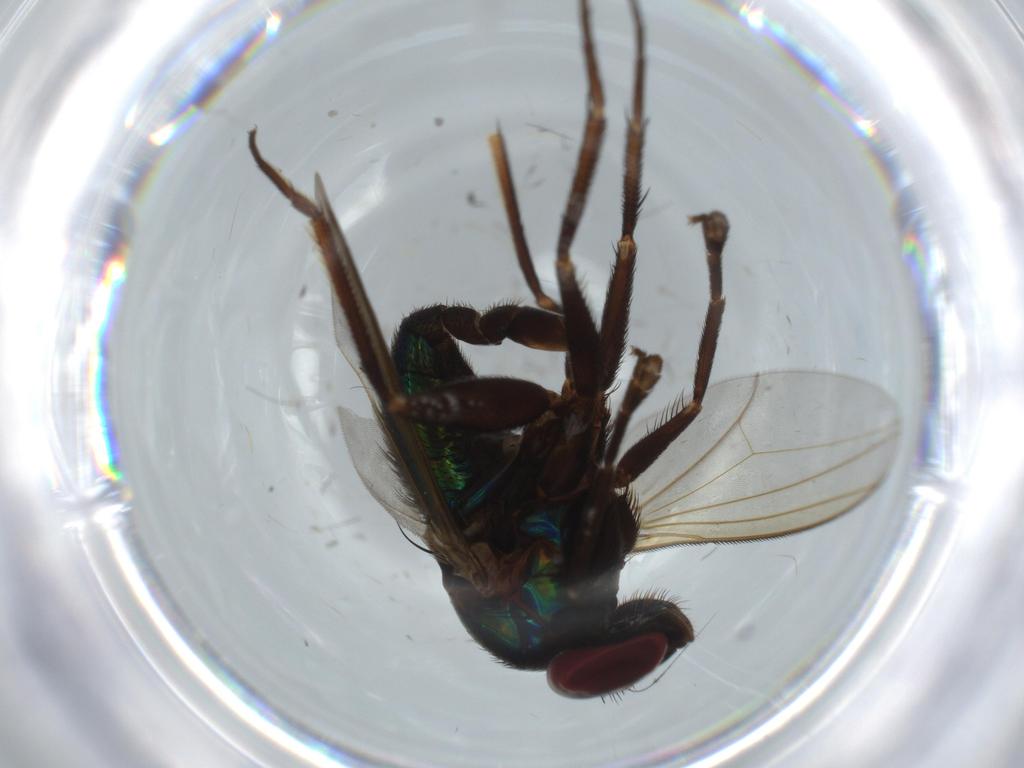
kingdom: Animalia
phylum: Arthropoda
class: Insecta
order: Diptera
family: Dolichopodidae
